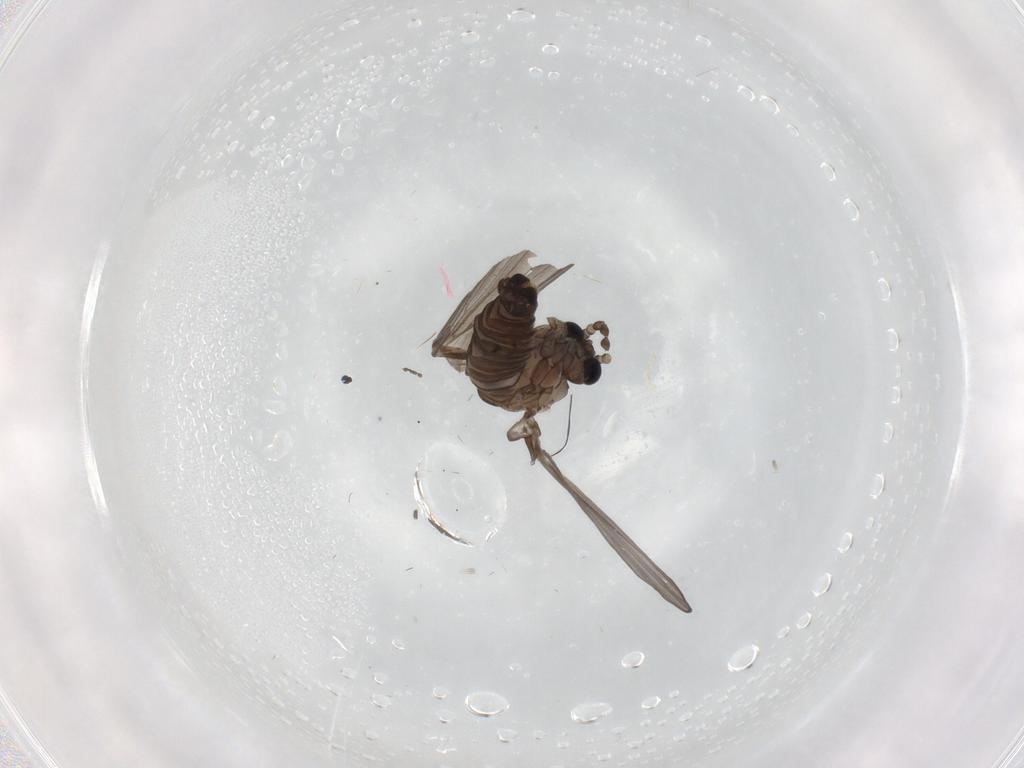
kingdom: Animalia
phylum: Arthropoda
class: Insecta
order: Diptera
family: Psychodidae
